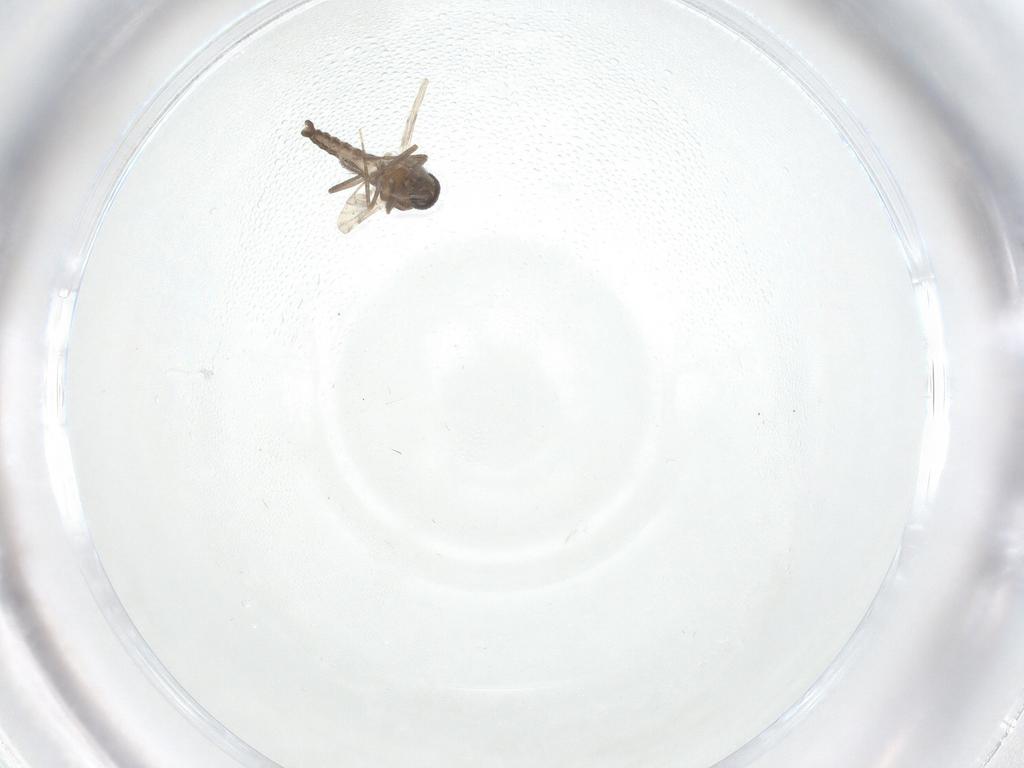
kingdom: Animalia
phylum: Arthropoda
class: Insecta
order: Diptera
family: Ceratopogonidae
